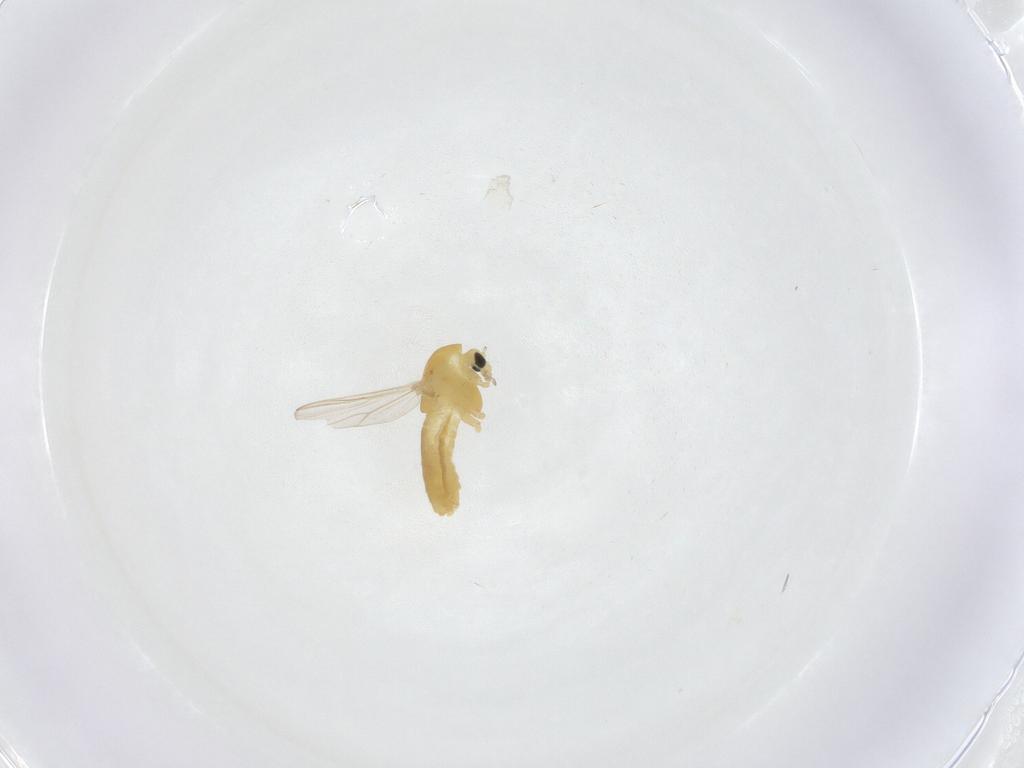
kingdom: Animalia
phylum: Arthropoda
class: Insecta
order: Diptera
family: Chironomidae
